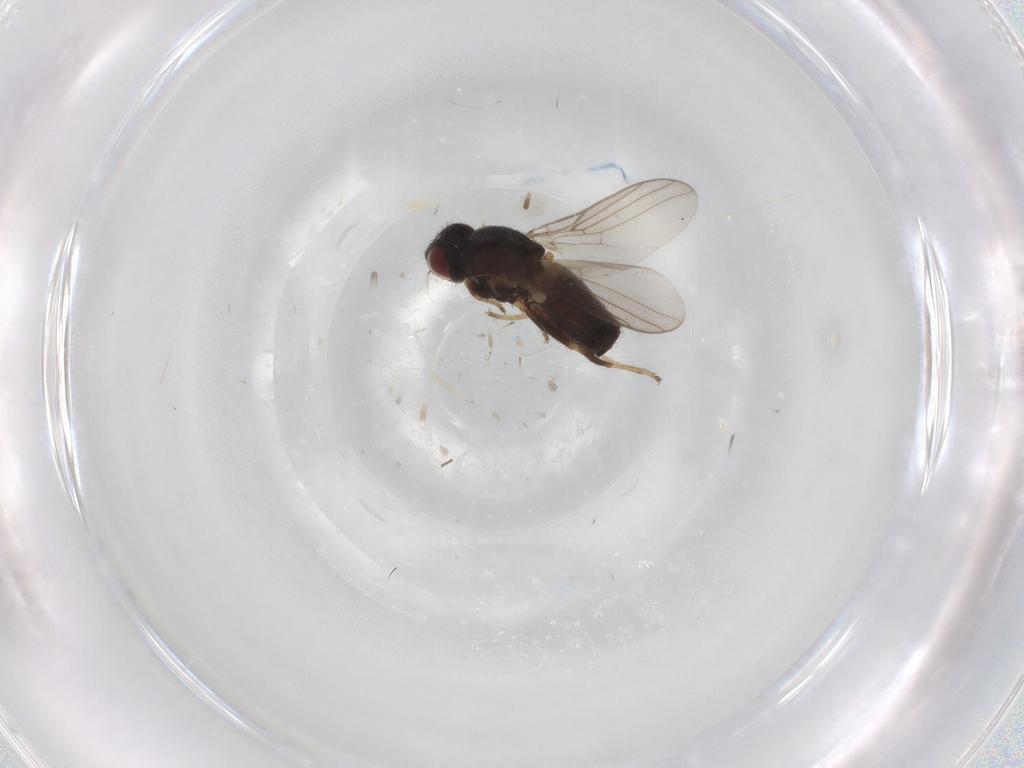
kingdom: Animalia
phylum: Arthropoda
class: Insecta
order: Diptera
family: Chloropidae
